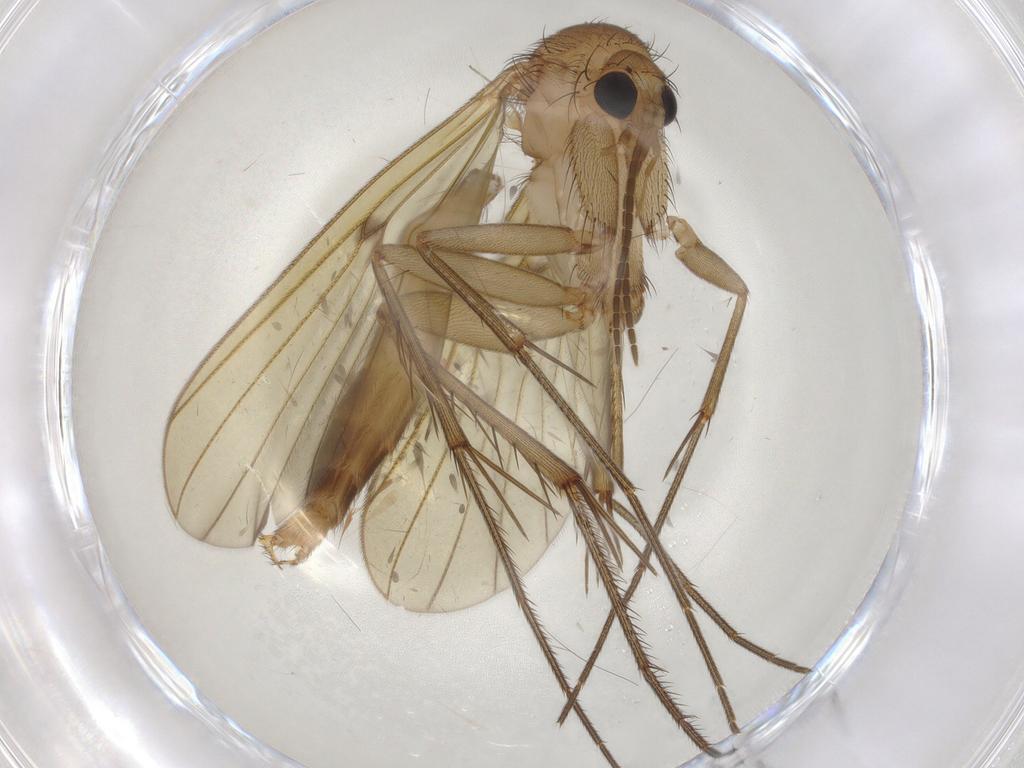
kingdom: Animalia
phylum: Arthropoda
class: Insecta
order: Diptera
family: Mycetophilidae
